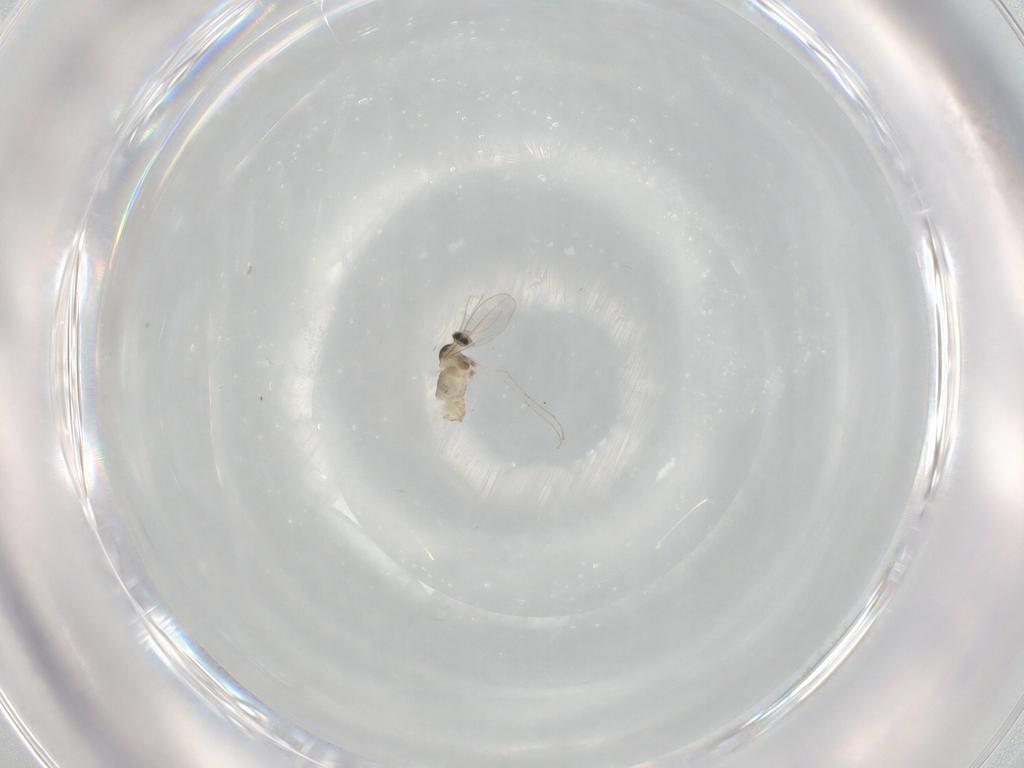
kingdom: Animalia
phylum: Arthropoda
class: Insecta
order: Diptera
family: Cecidomyiidae
